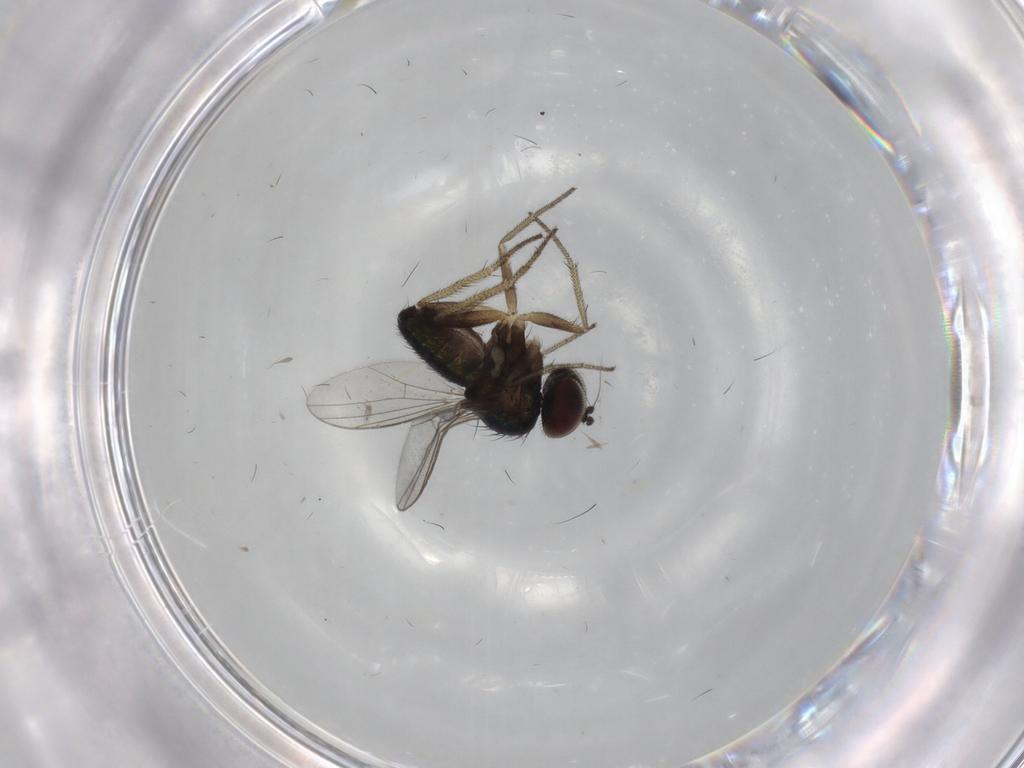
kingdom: Animalia
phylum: Arthropoda
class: Insecta
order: Diptera
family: Dolichopodidae
